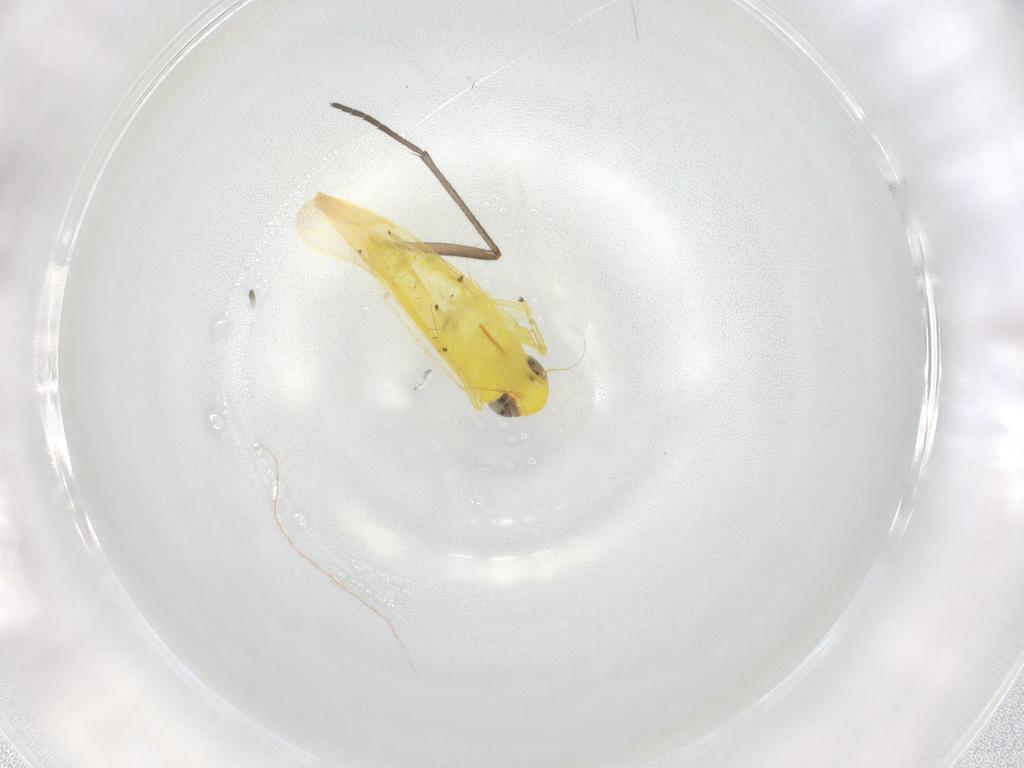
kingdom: Animalia
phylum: Arthropoda
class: Insecta
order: Hemiptera
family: Cicadellidae
